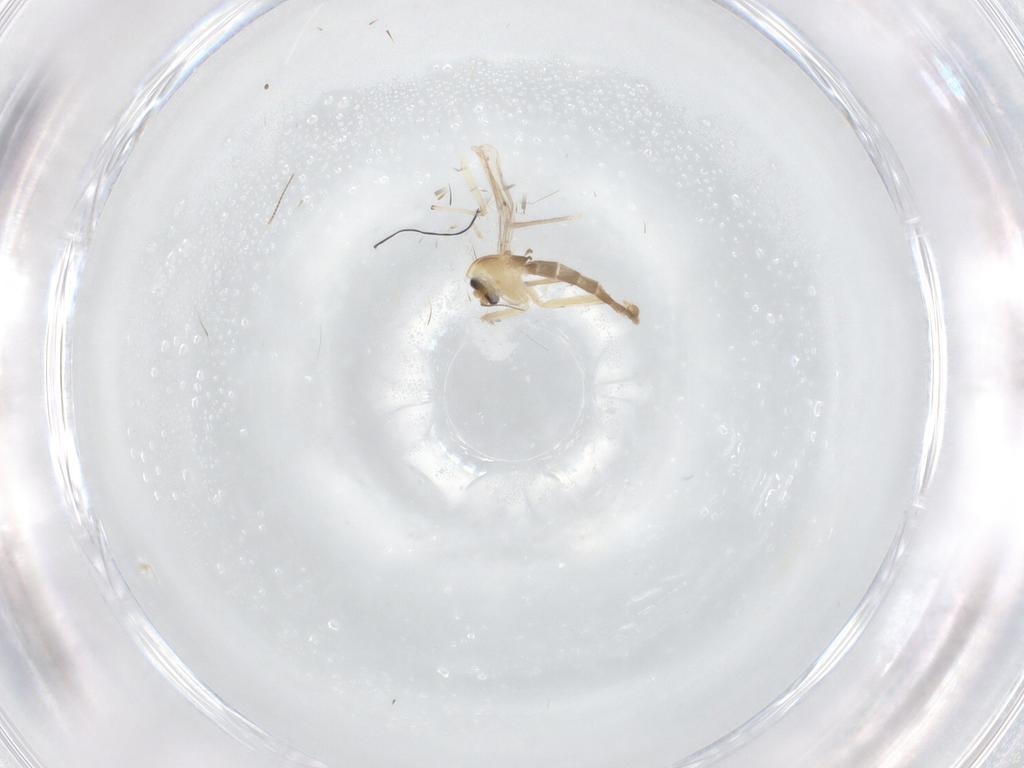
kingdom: Animalia
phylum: Arthropoda
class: Insecta
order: Diptera
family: Chironomidae
